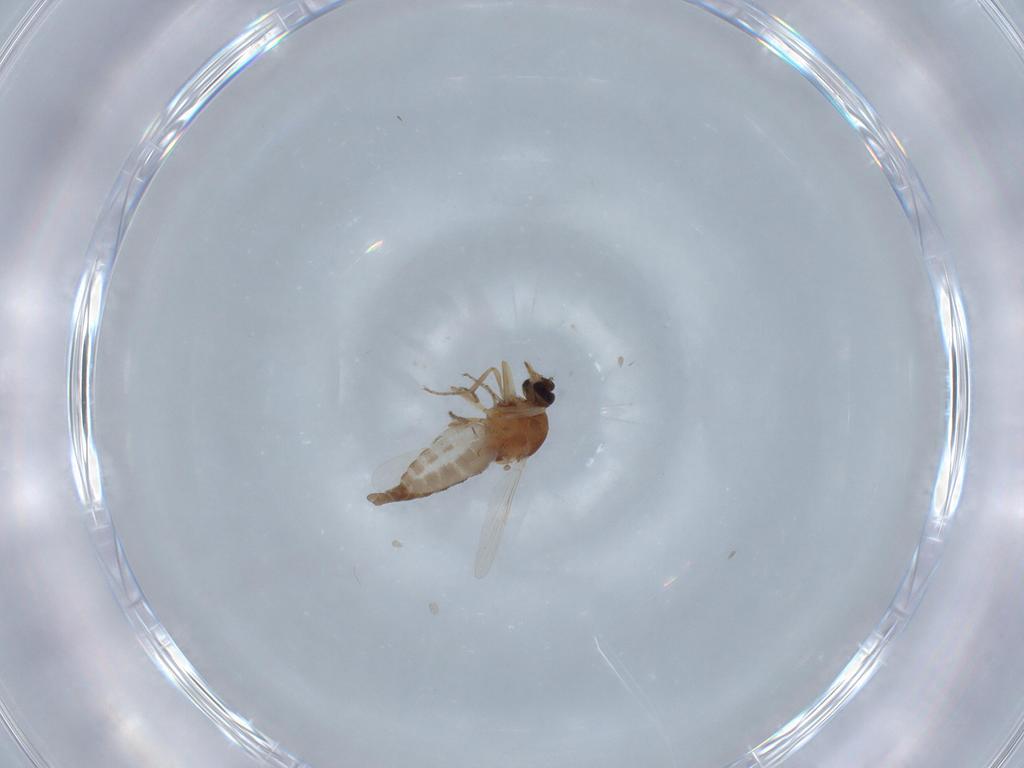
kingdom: Animalia
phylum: Arthropoda
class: Insecta
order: Diptera
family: Ceratopogonidae
